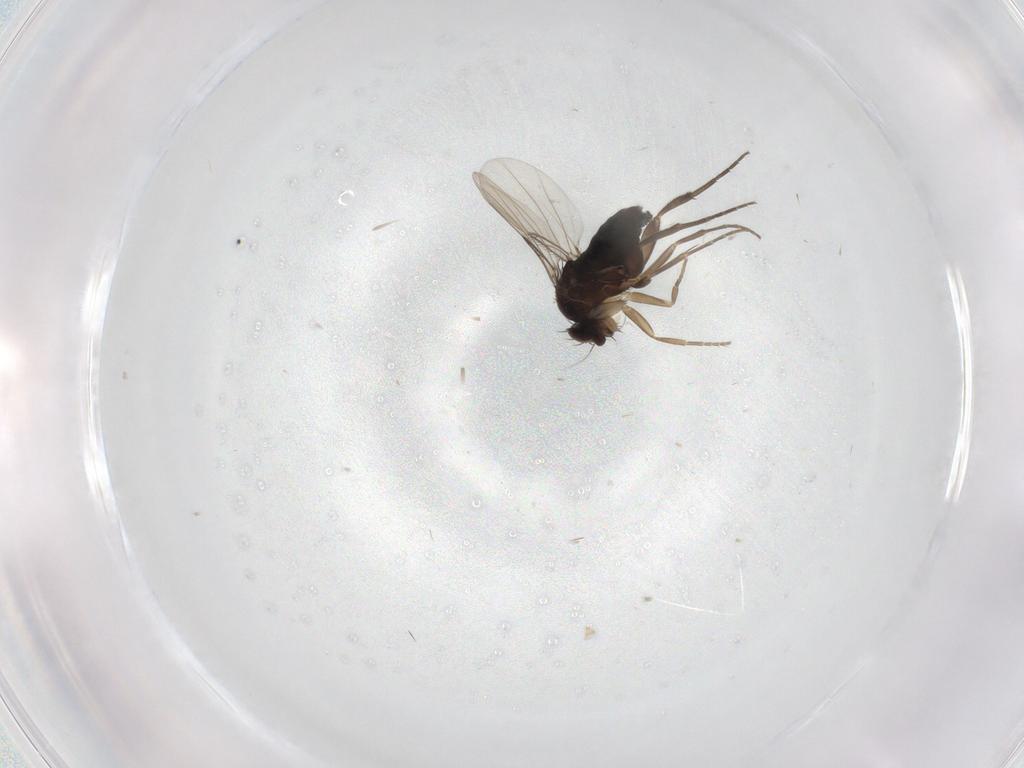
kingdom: Animalia
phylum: Arthropoda
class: Insecta
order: Diptera
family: Phoridae
